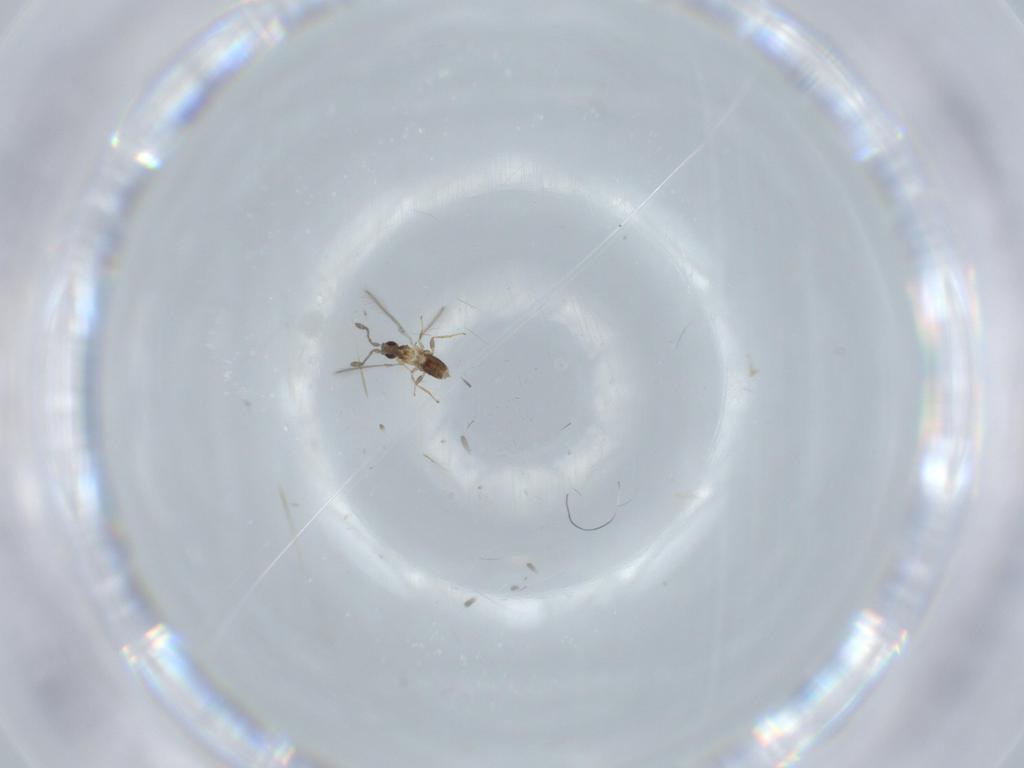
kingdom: Animalia
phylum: Arthropoda
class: Insecta
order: Hymenoptera
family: Mymaridae
